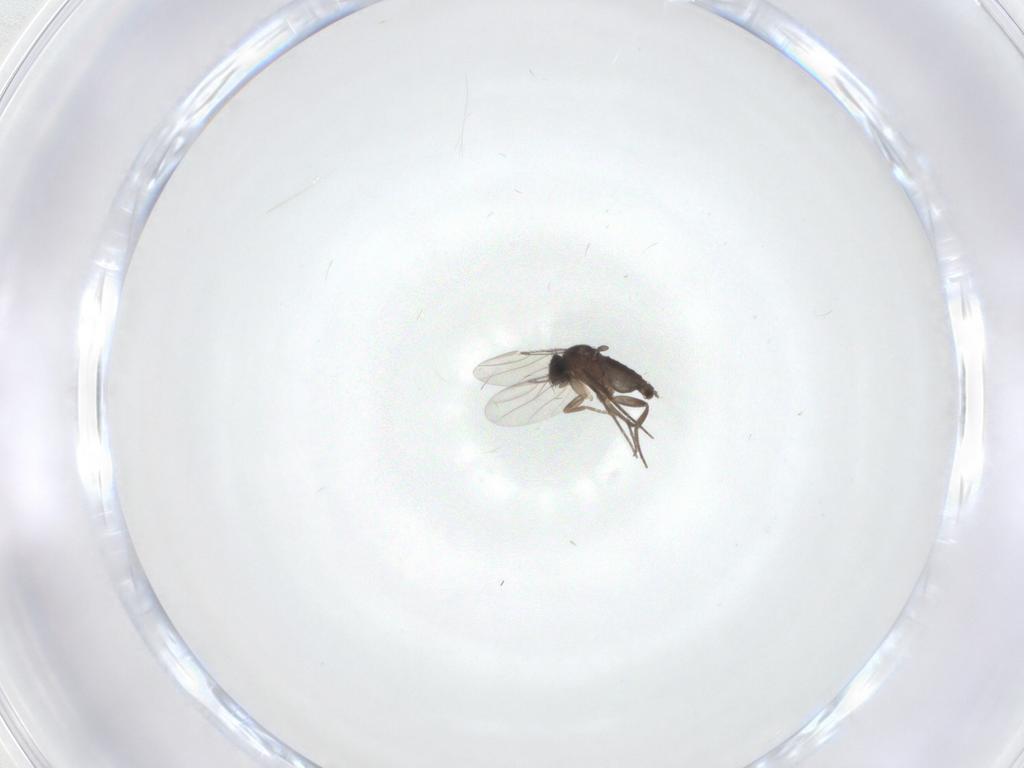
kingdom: Animalia
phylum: Arthropoda
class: Insecta
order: Diptera
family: Phoridae
